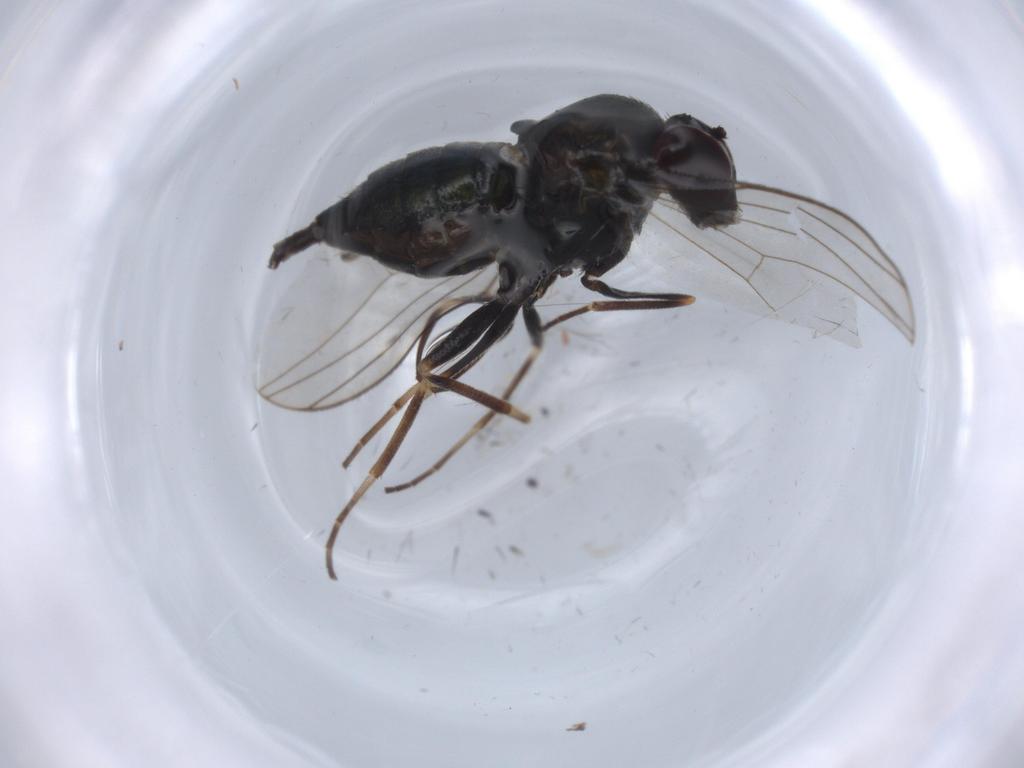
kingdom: Animalia
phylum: Arthropoda
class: Insecta
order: Diptera
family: Dolichopodidae
